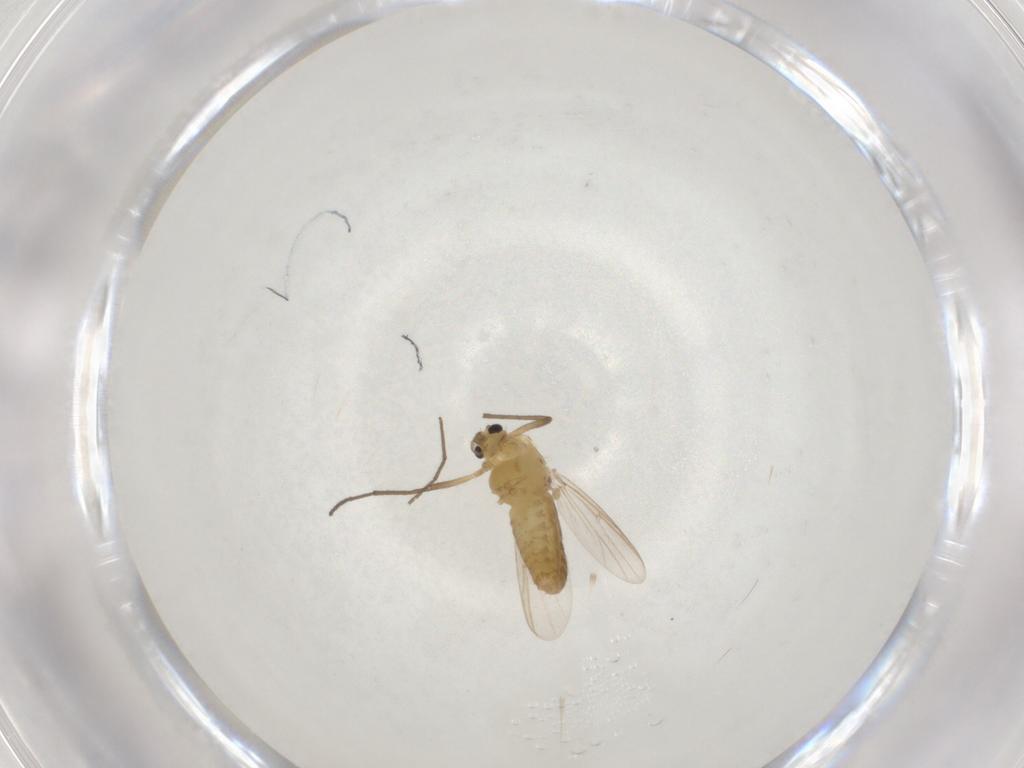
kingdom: Animalia
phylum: Arthropoda
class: Insecta
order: Diptera
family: Chironomidae
